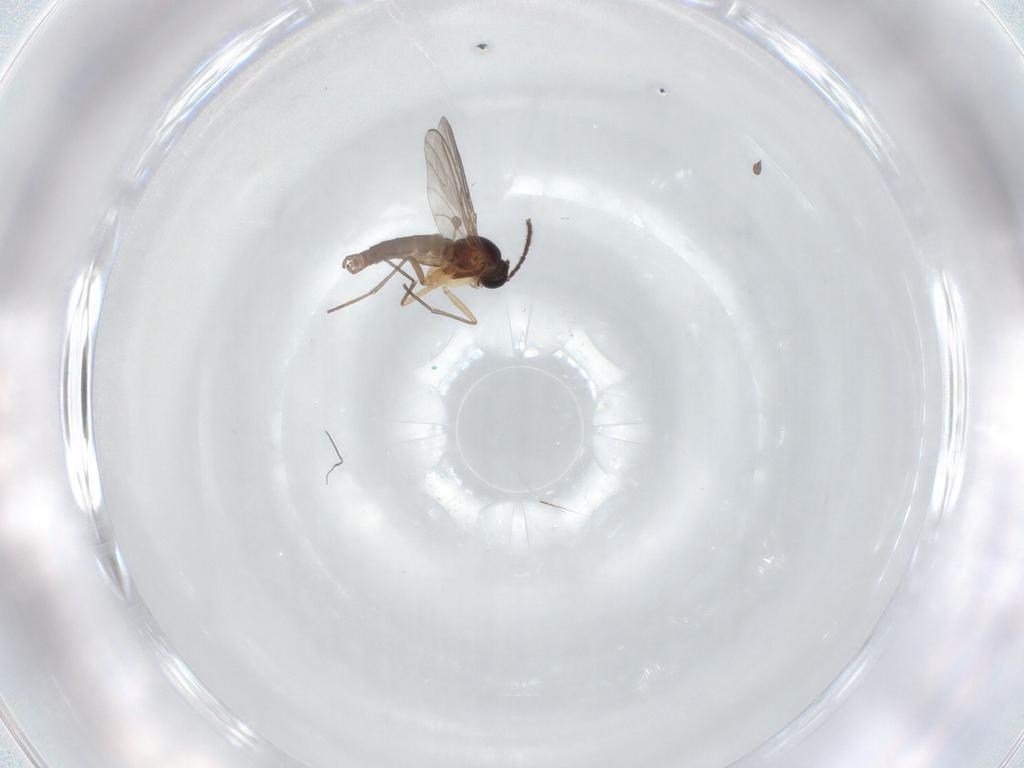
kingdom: Animalia
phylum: Arthropoda
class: Insecta
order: Diptera
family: Sciaridae
